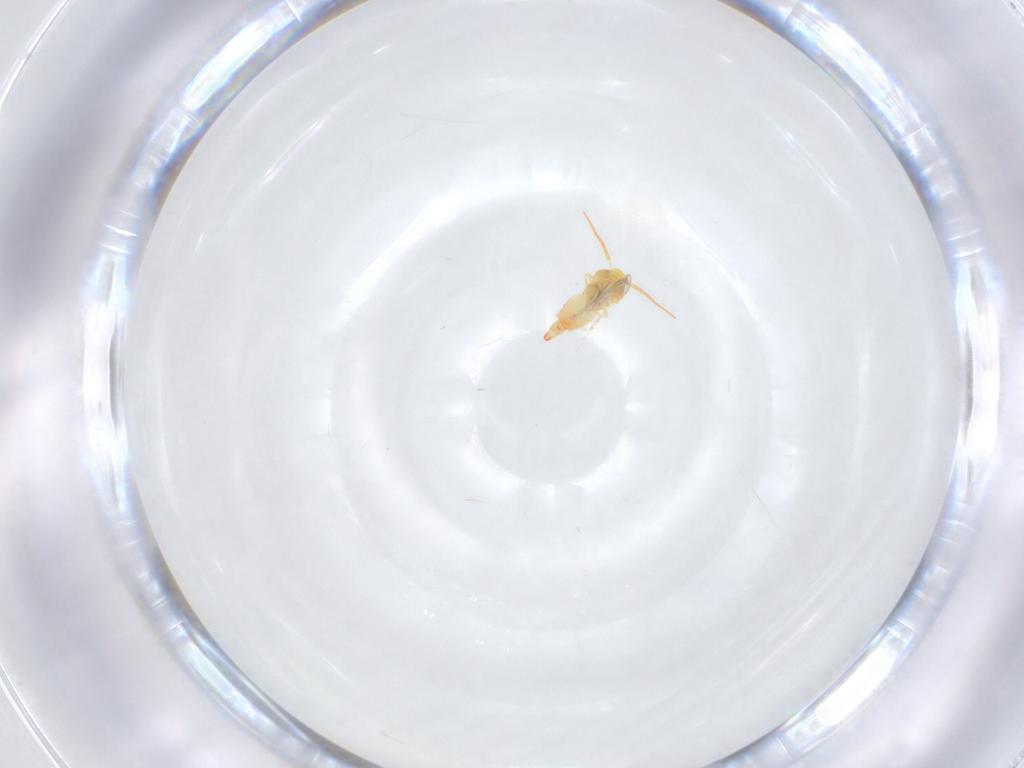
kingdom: Animalia
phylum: Arthropoda
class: Insecta
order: Hemiptera
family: Aleyrodidae
